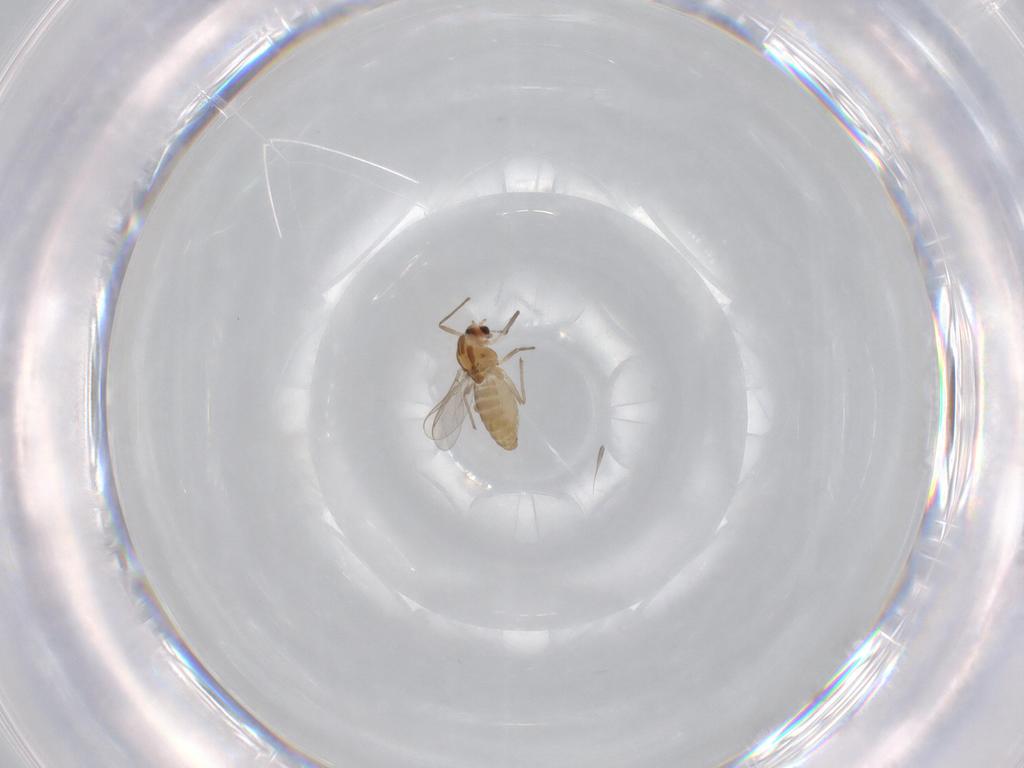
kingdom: Animalia
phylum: Arthropoda
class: Insecta
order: Diptera
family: Chironomidae
